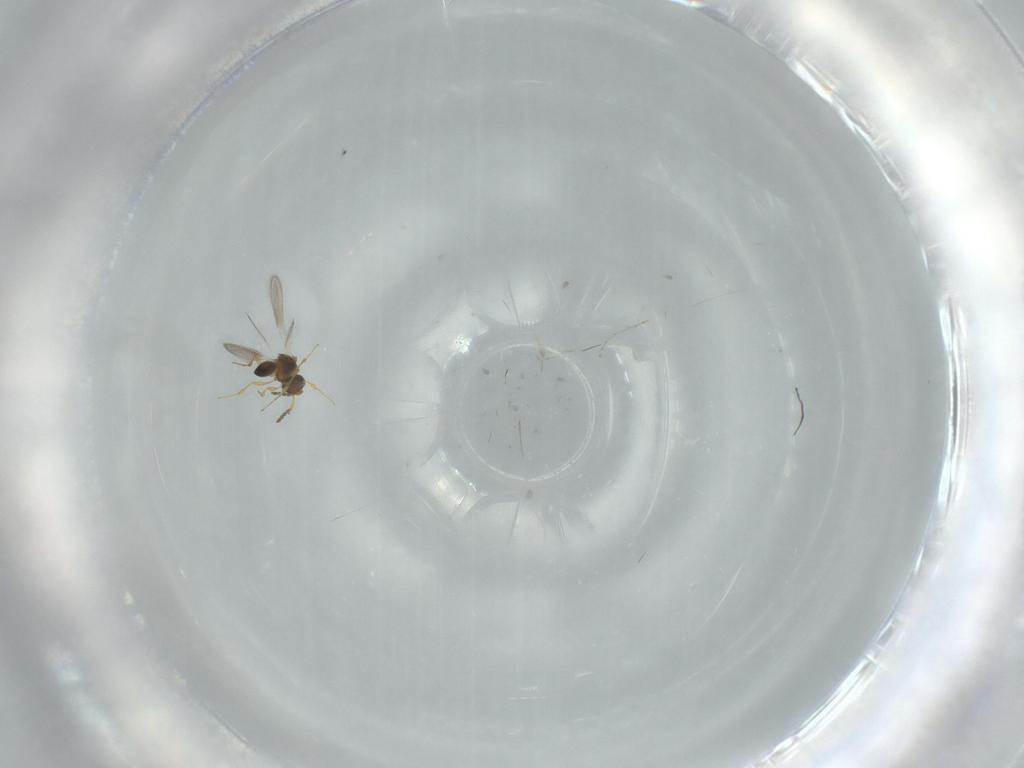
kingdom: Animalia
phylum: Arthropoda
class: Insecta
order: Hymenoptera
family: Platygastridae
